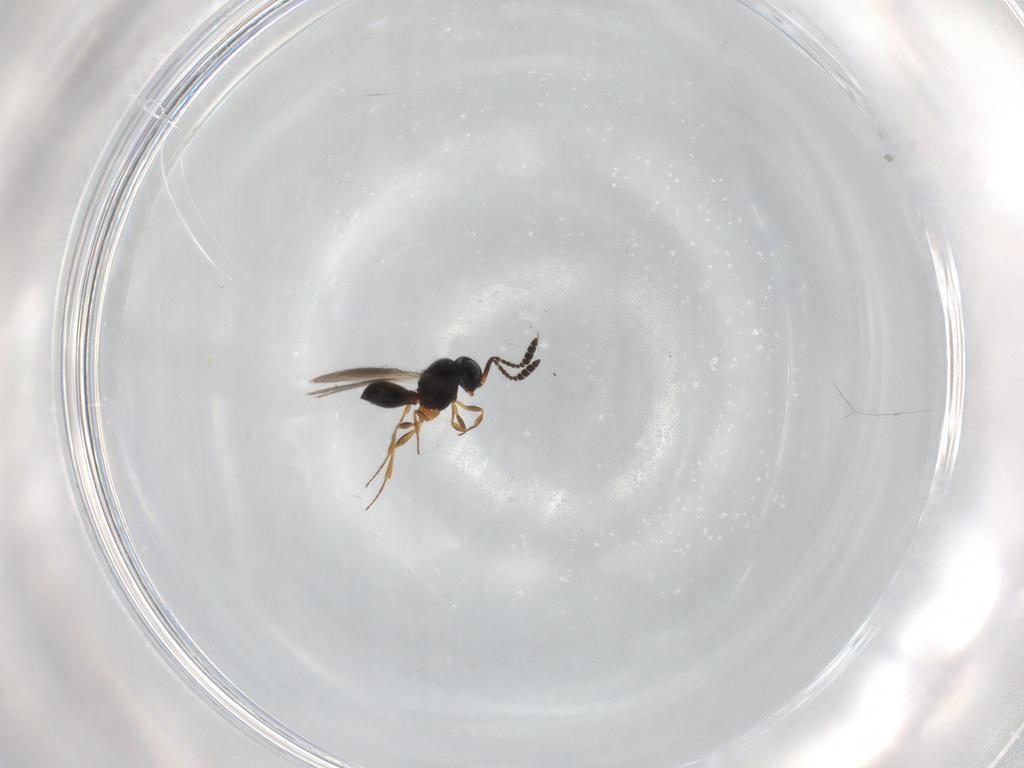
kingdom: Animalia
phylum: Arthropoda
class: Insecta
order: Hymenoptera
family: Scelionidae
